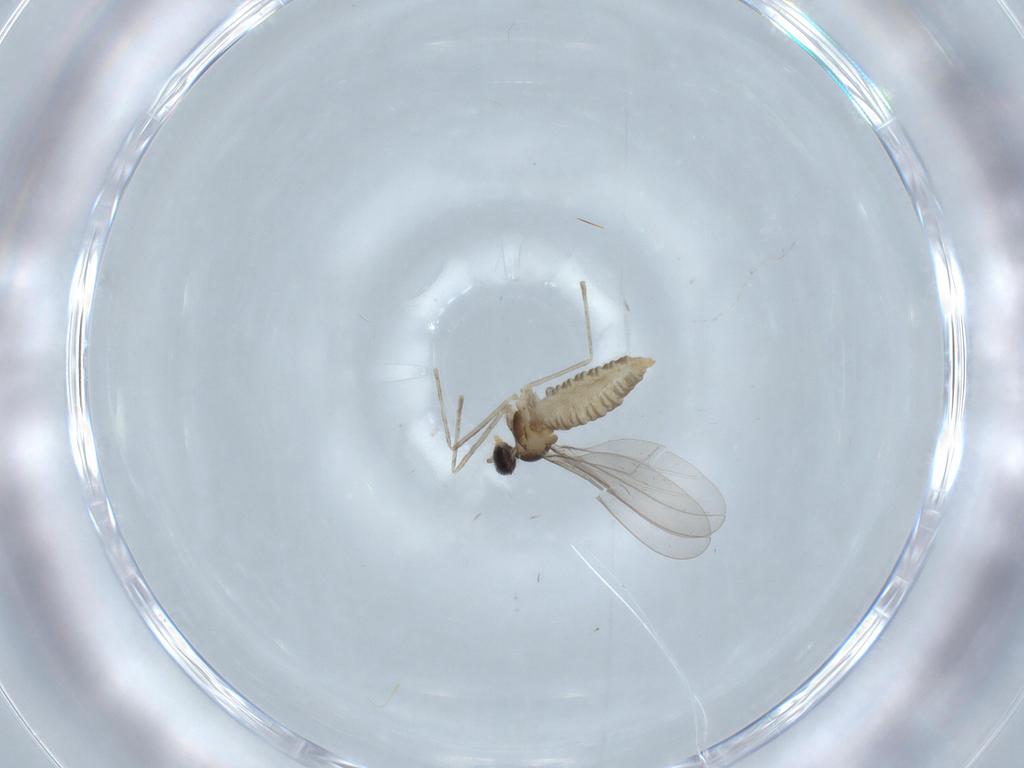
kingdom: Animalia
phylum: Arthropoda
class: Insecta
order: Diptera
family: Cecidomyiidae
